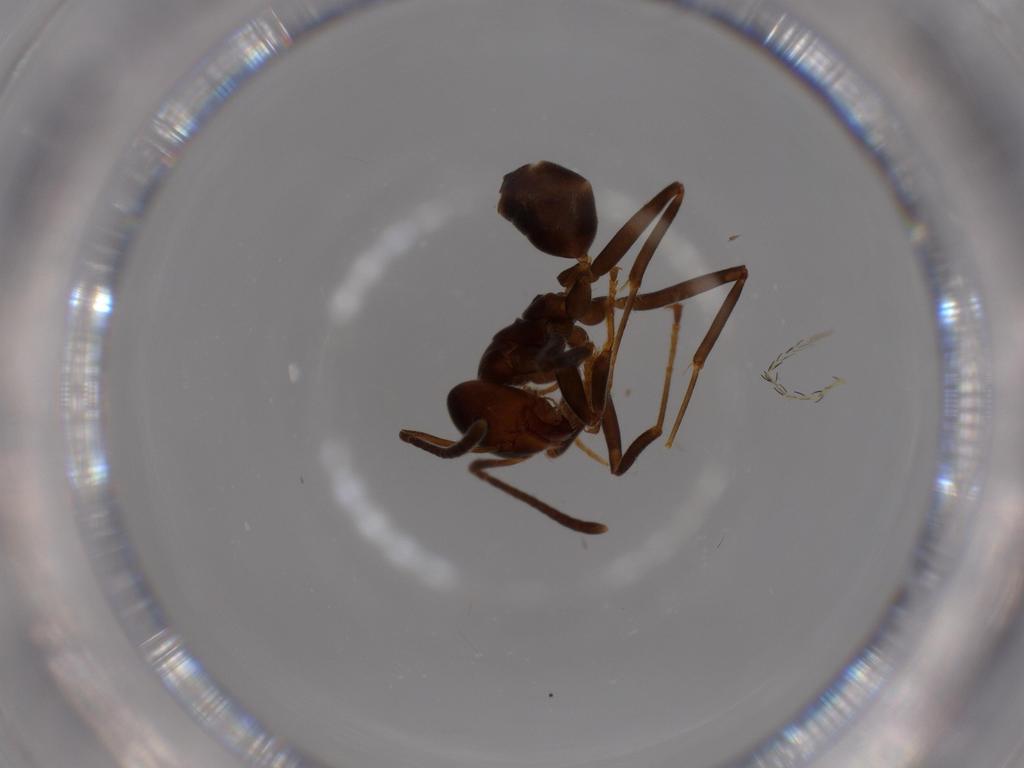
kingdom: Animalia
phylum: Arthropoda
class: Insecta
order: Hymenoptera
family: Formicidae
